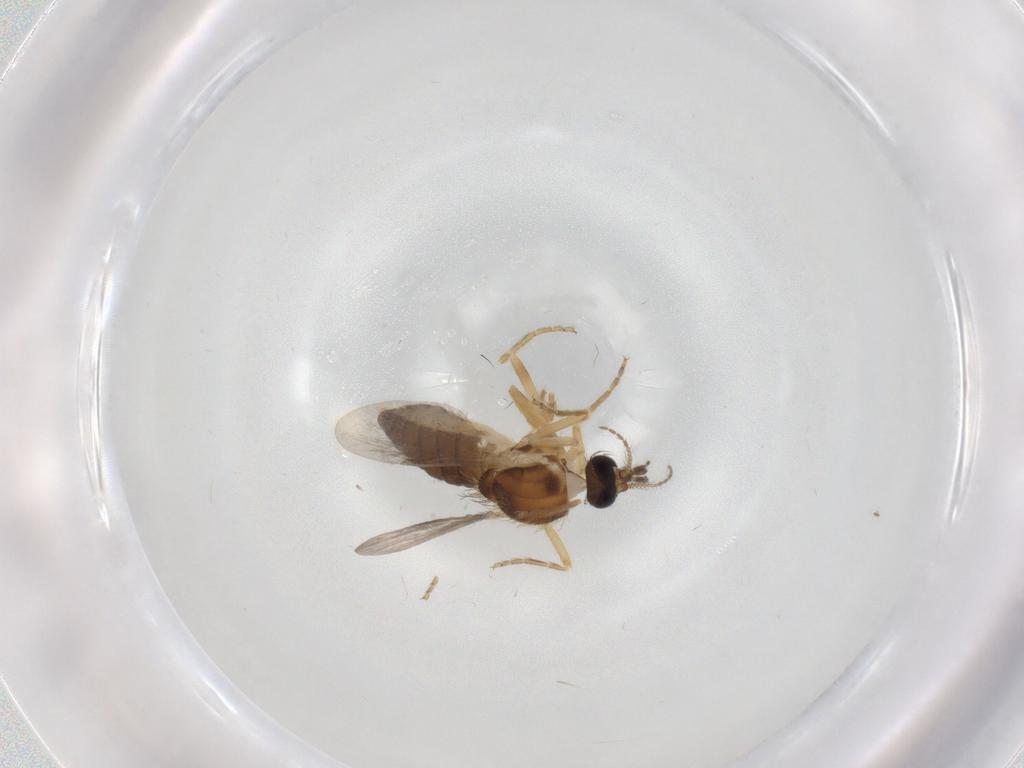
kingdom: Animalia
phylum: Arthropoda
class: Insecta
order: Diptera
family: Ceratopogonidae
